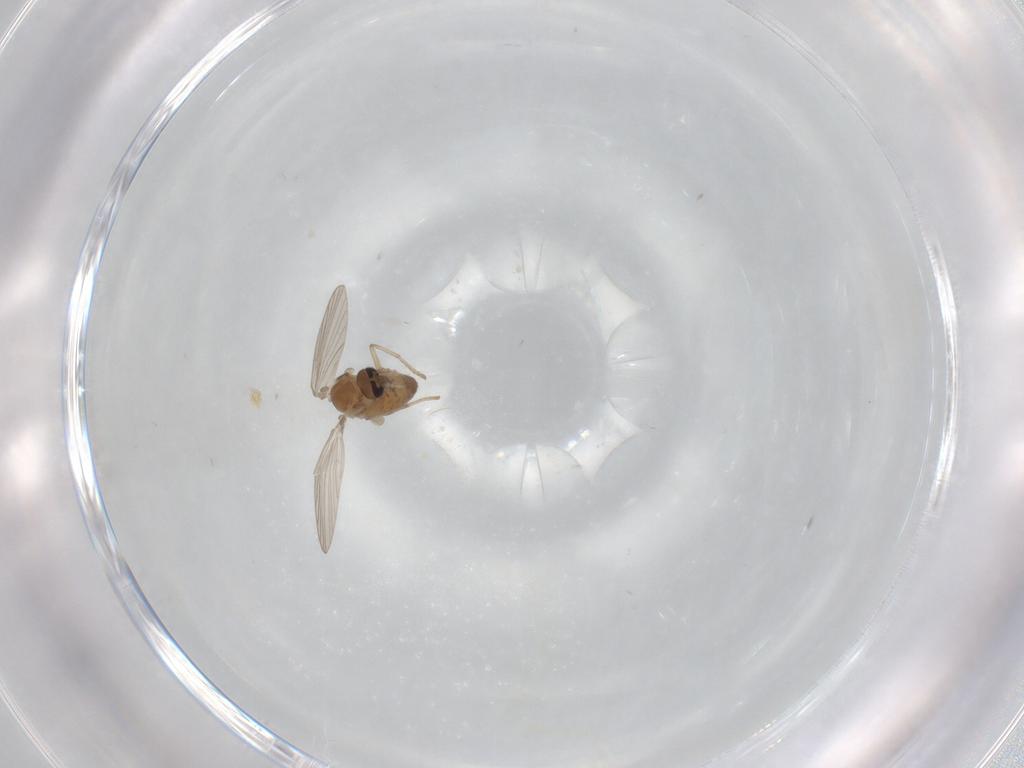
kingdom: Animalia
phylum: Arthropoda
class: Insecta
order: Diptera
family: Psychodidae
